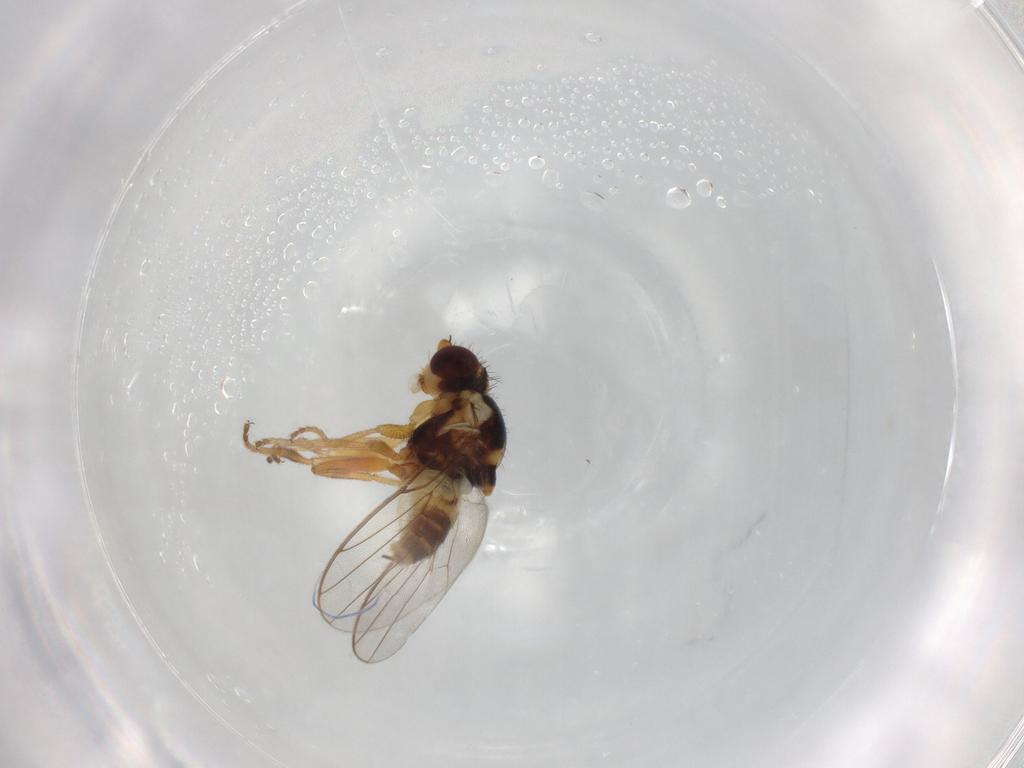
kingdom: Animalia
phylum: Arthropoda
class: Insecta
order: Diptera
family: Chloropidae
